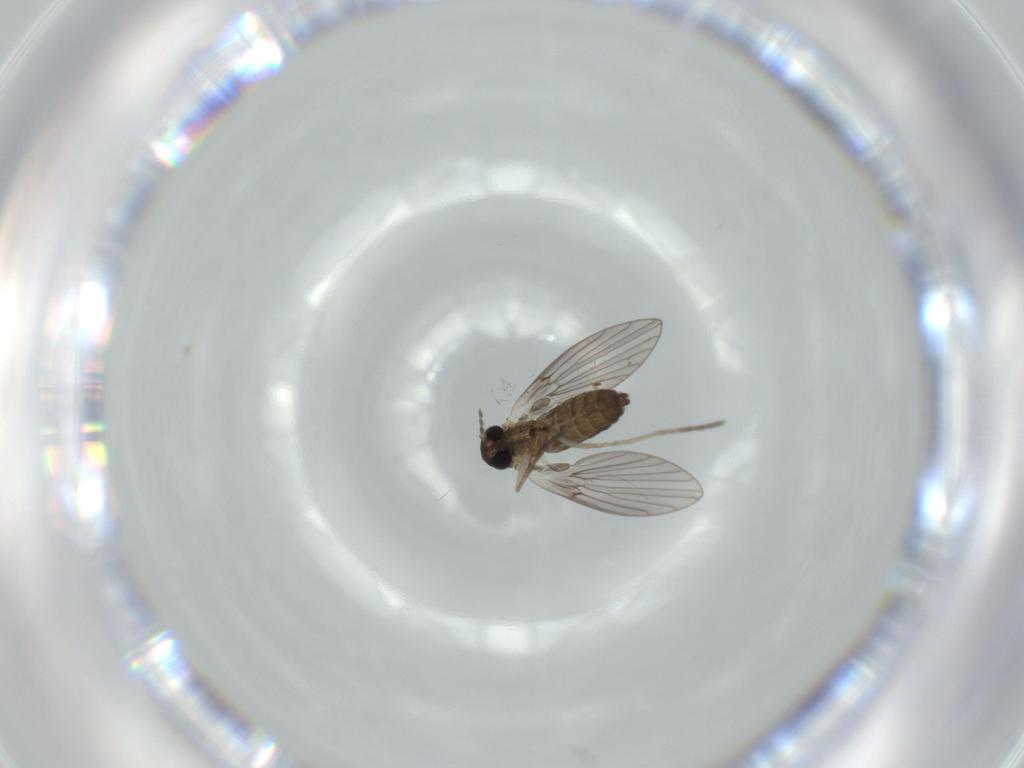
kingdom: Animalia
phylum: Arthropoda
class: Insecta
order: Diptera
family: Psychodidae
